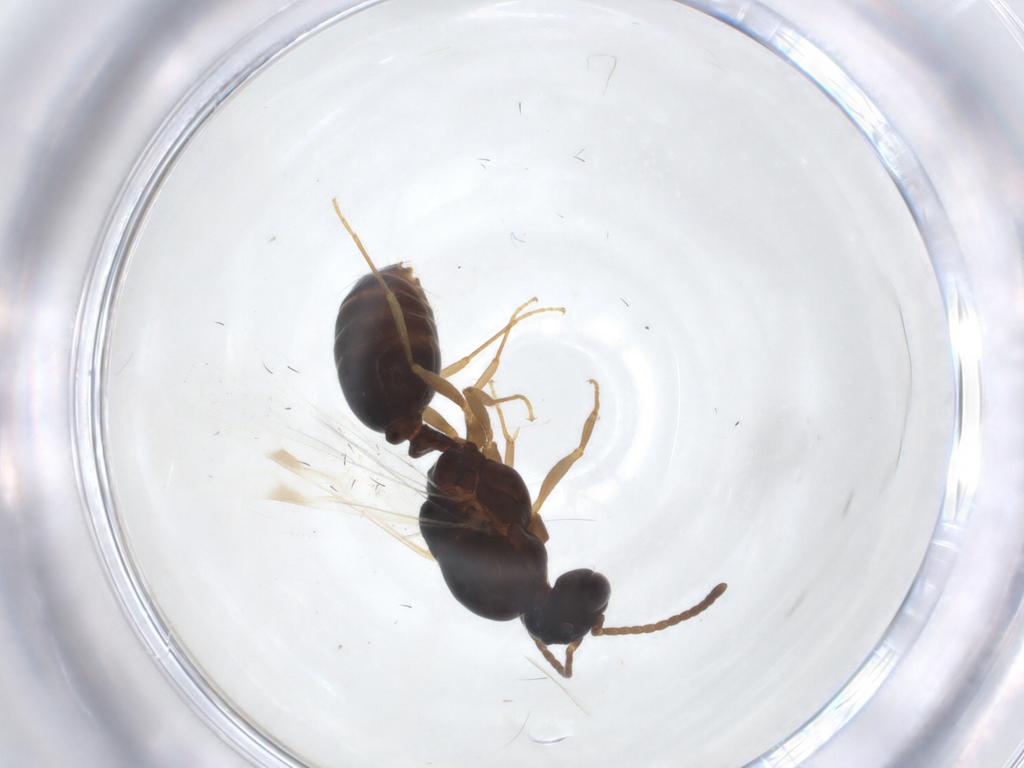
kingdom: Animalia
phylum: Arthropoda
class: Insecta
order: Hymenoptera
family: Formicidae
